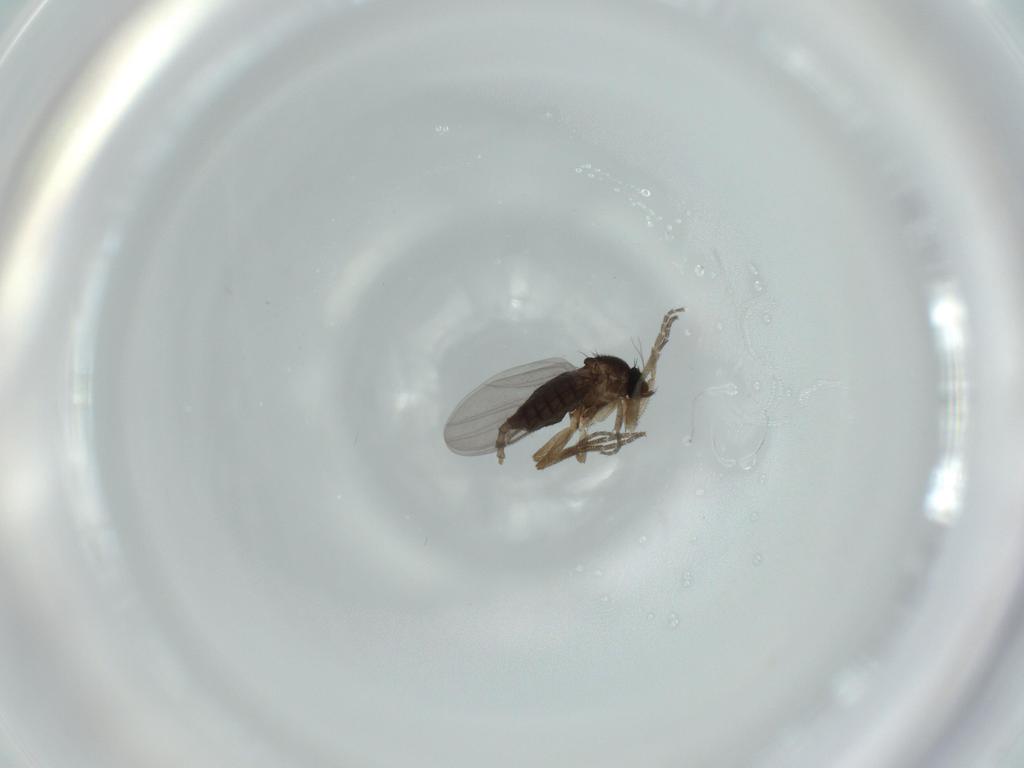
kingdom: Animalia
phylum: Arthropoda
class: Insecta
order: Diptera
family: Phoridae
